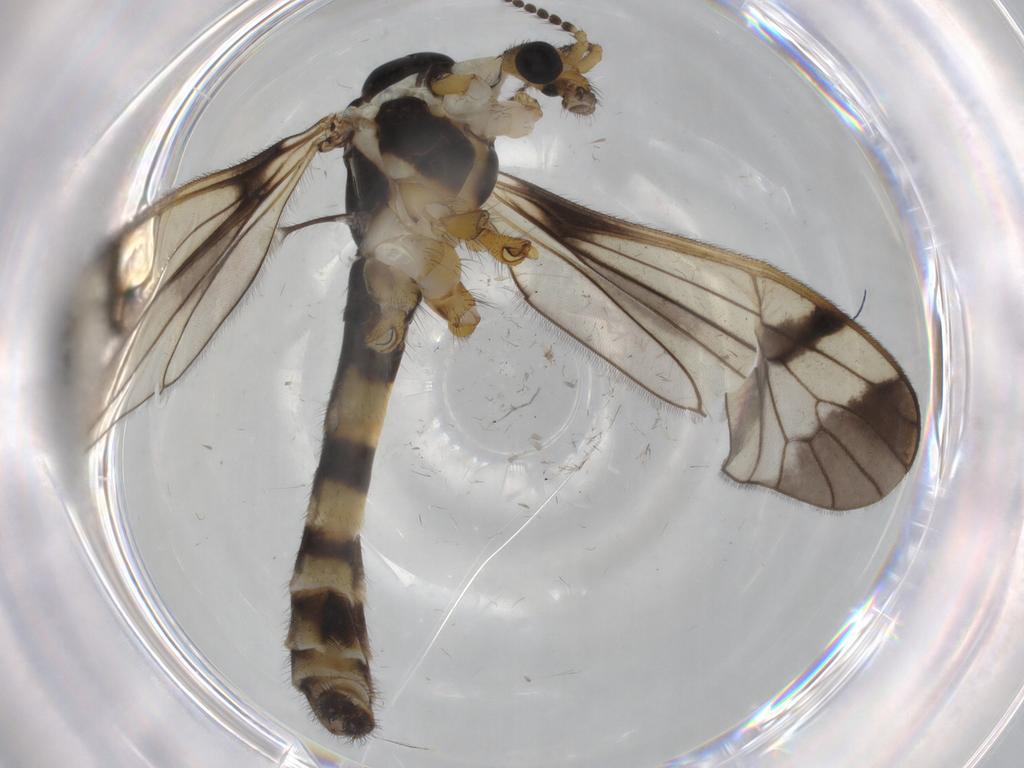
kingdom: Animalia
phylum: Arthropoda
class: Insecta
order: Diptera
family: Limoniidae
